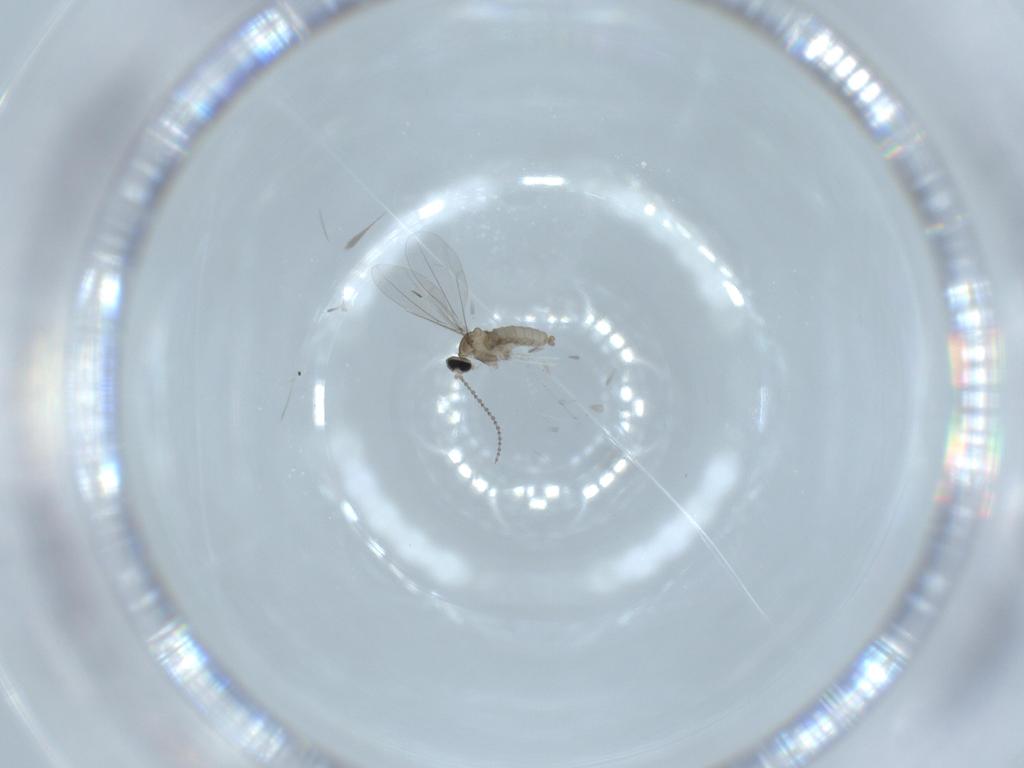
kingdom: Animalia
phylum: Arthropoda
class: Insecta
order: Diptera
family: Cecidomyiidae
